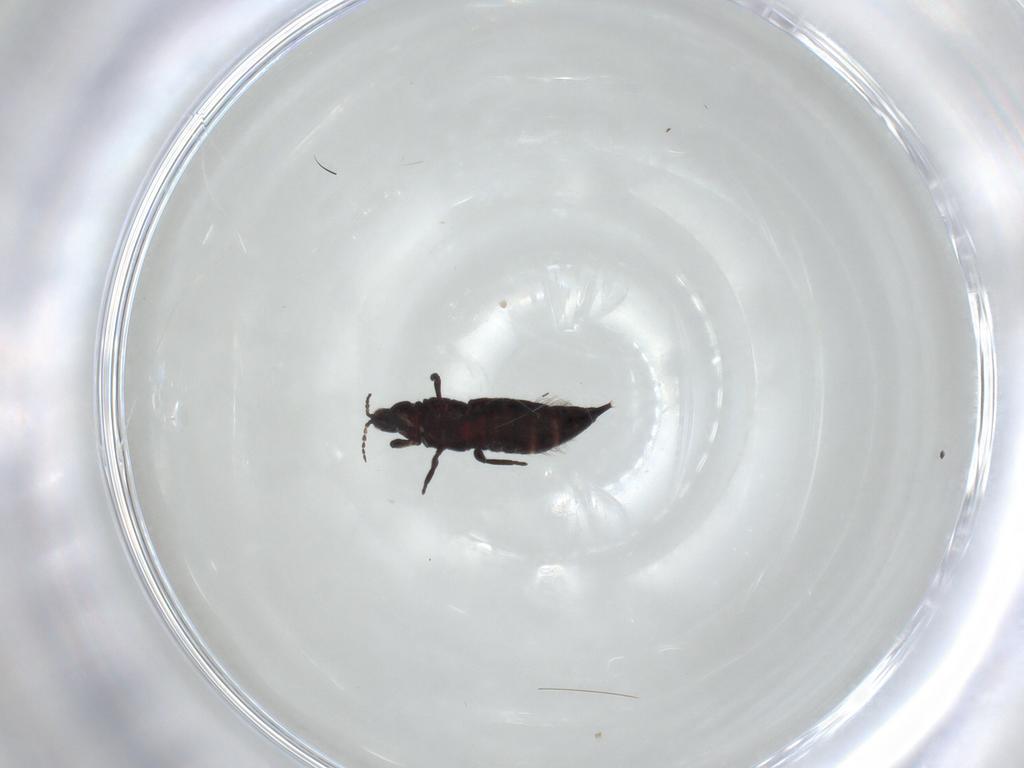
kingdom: Animalia
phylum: Arthropoda
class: Insecta
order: Thysanoptera
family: Phlaeothripidae
